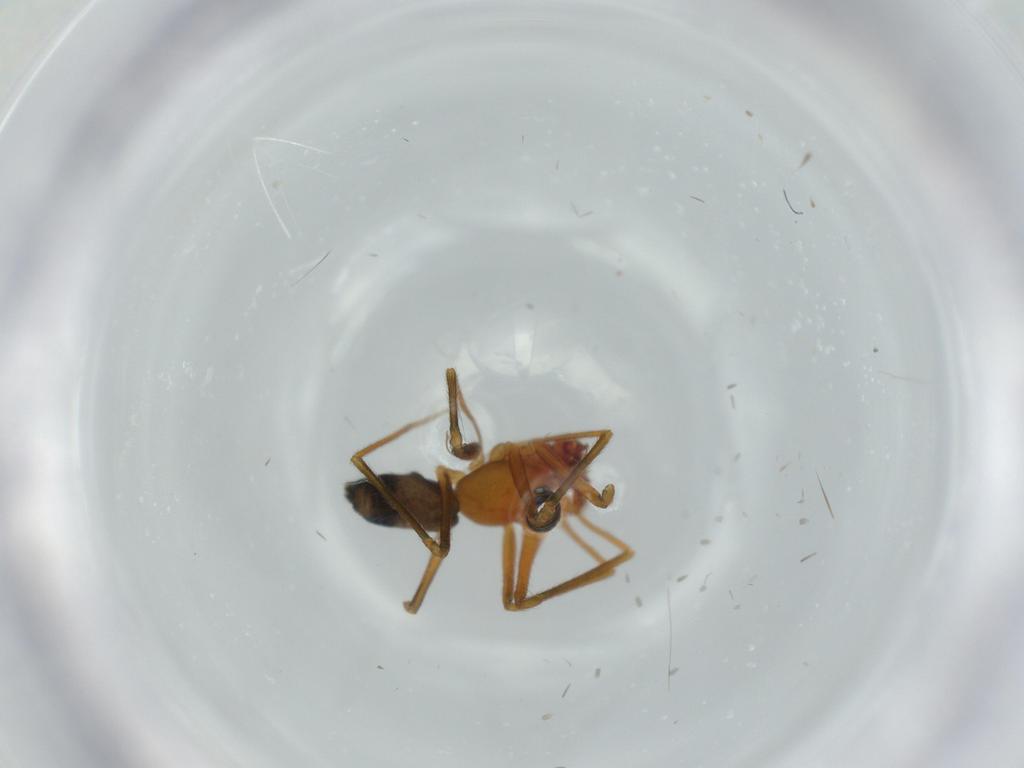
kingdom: Animalia
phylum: Arthropoda
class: Arachnida
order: Araneae
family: Linyphiidae
